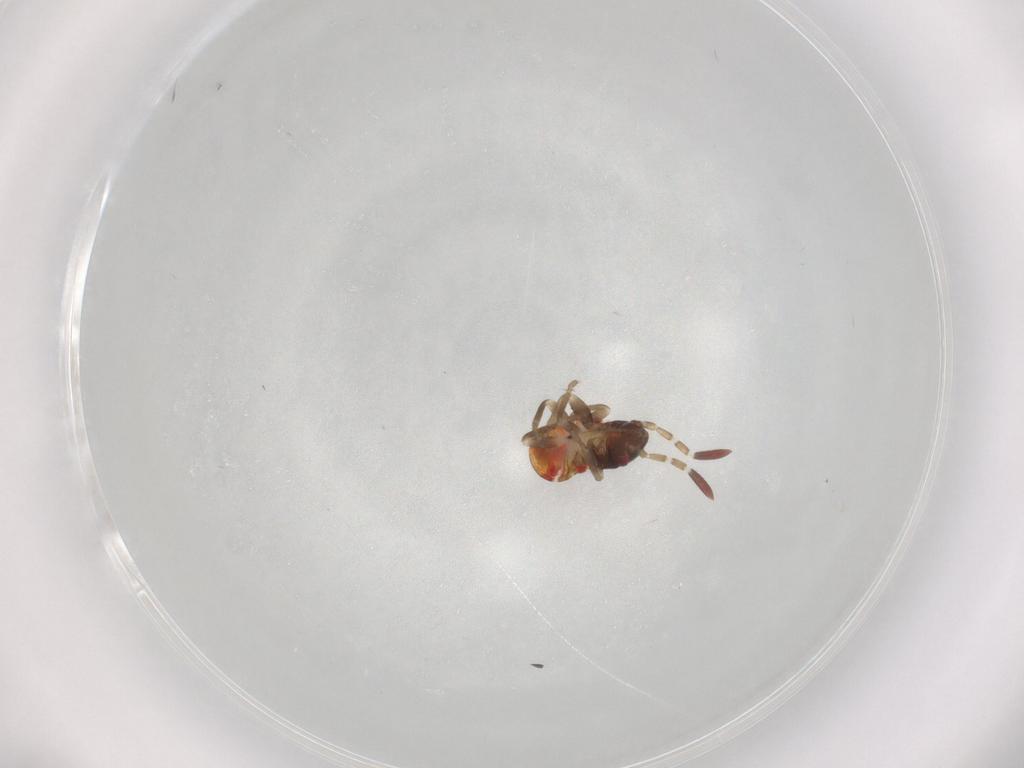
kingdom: Animalia
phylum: Arthropoda
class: Insecta
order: Hemiptera
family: Rhyparochromidae
